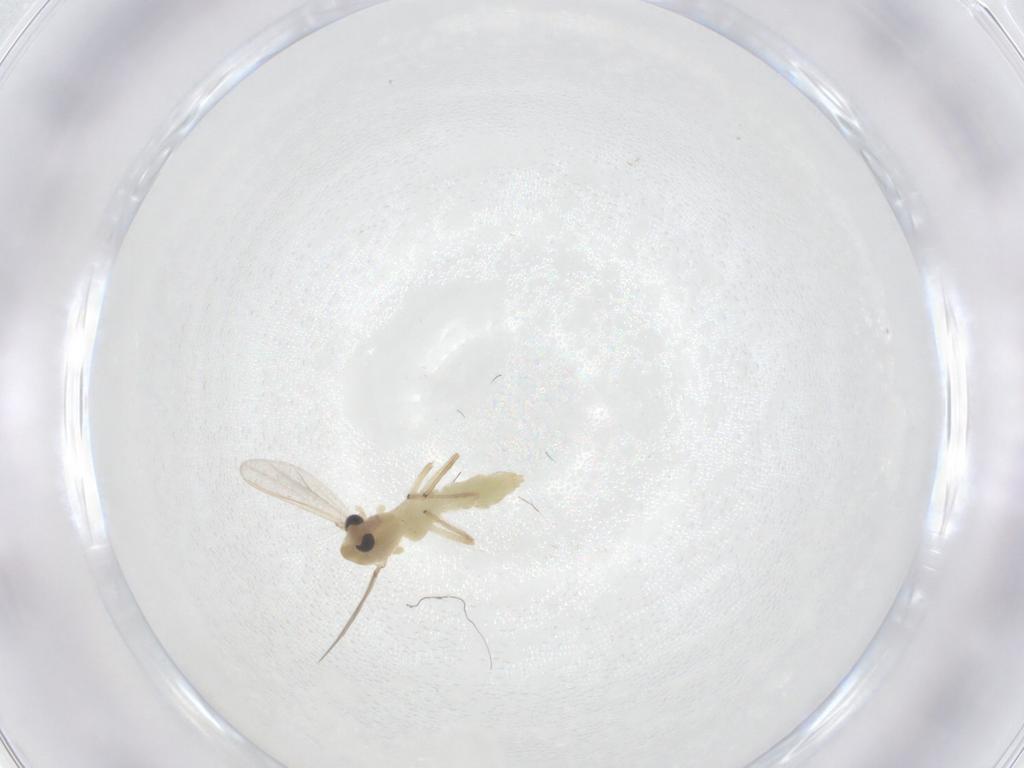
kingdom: Animalia
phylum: Arthropoda
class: Insecta
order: Diptera
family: Chironomidae
